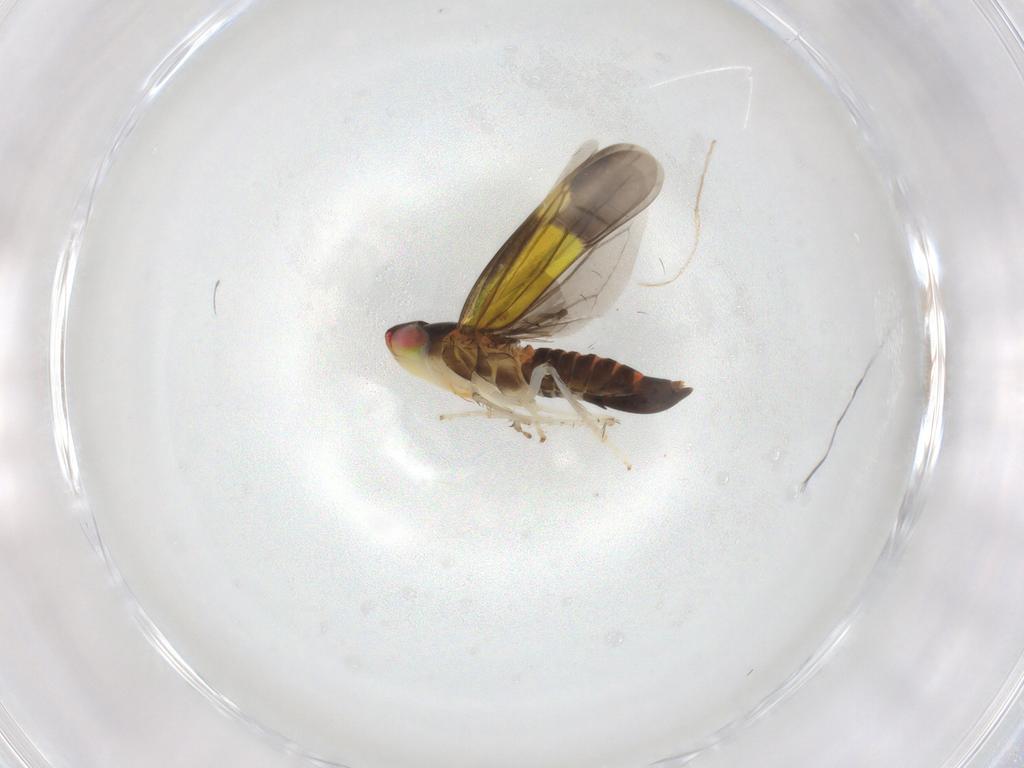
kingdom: Animalia
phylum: Arthropoda
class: Insecta
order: Hemiptera
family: Cicadellidae
